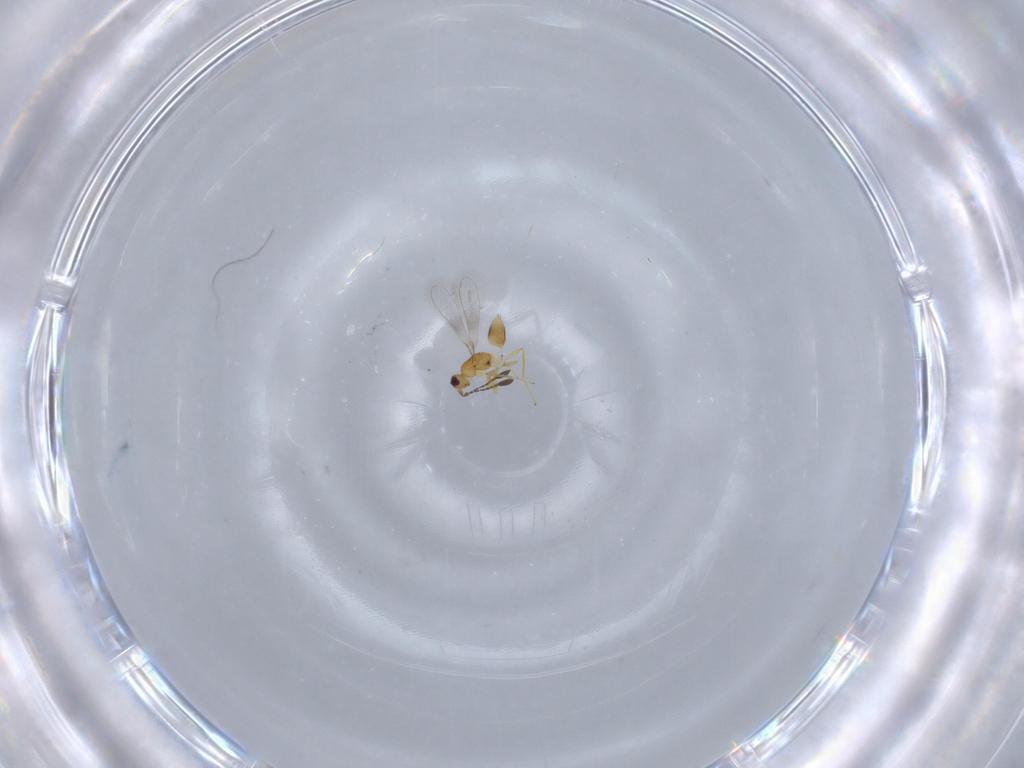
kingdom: Animalia
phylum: Arthropoda
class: Insecta
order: Hymenoptera
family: Mymaridae
